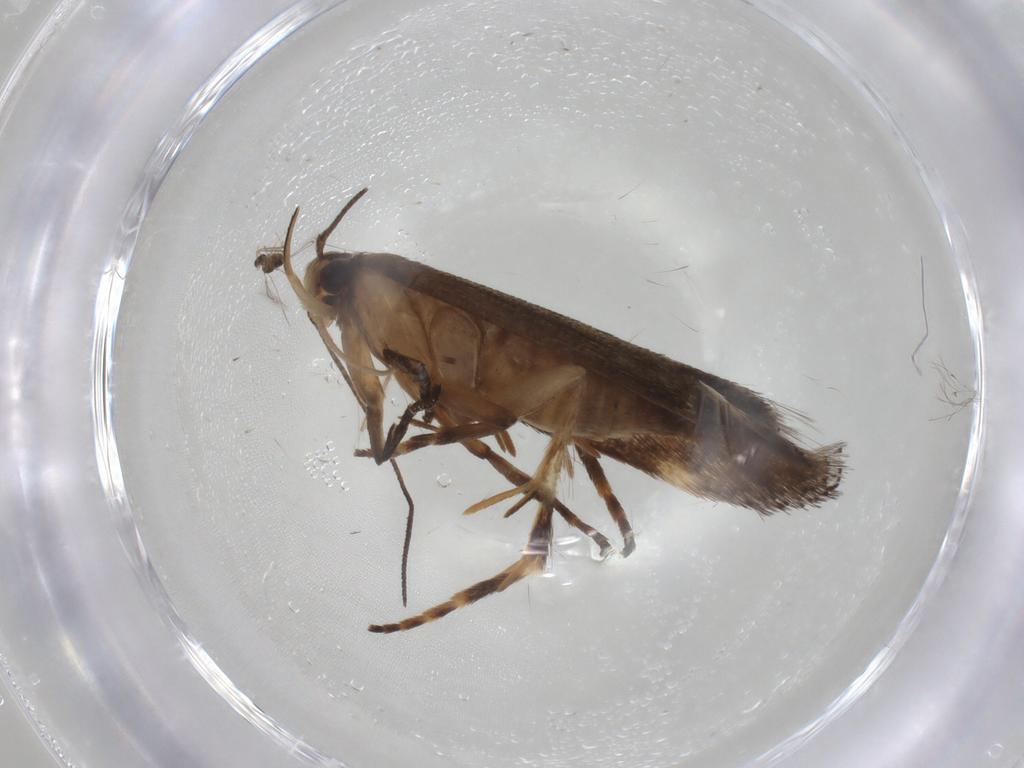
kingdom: Animalia
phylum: Arthropoda
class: Insecta
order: Lepidoptera
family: Gelechiidae
